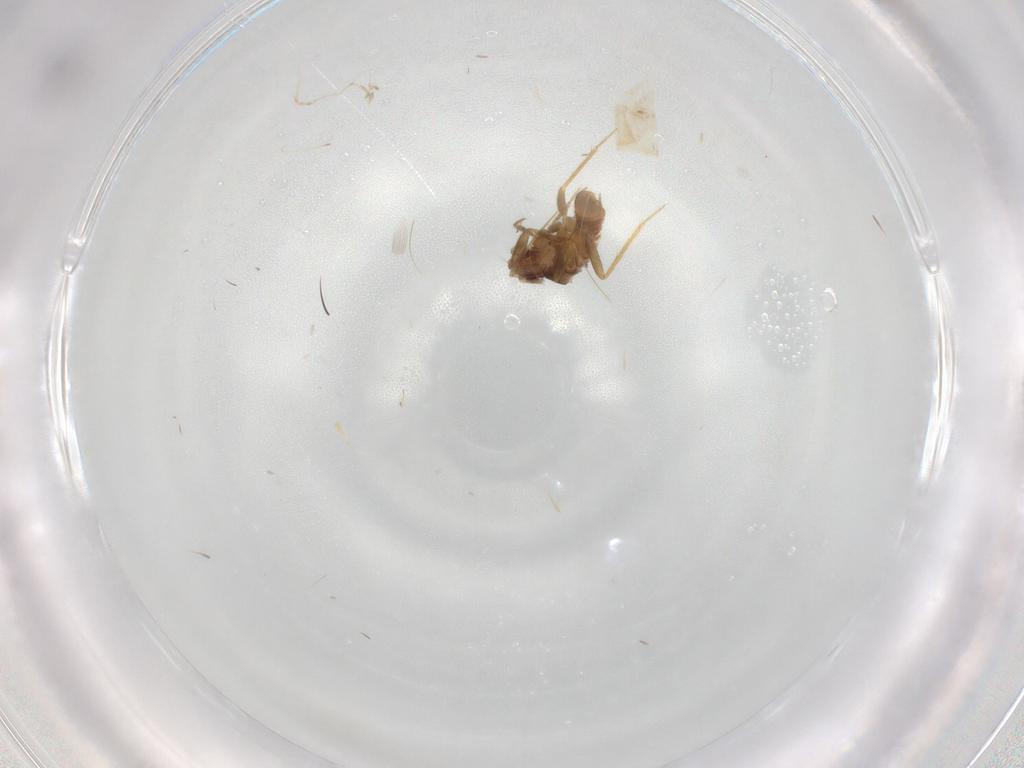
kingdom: Animalia
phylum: Arthropoda
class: Insecta
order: Hemiptera
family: Ceratocombidae
